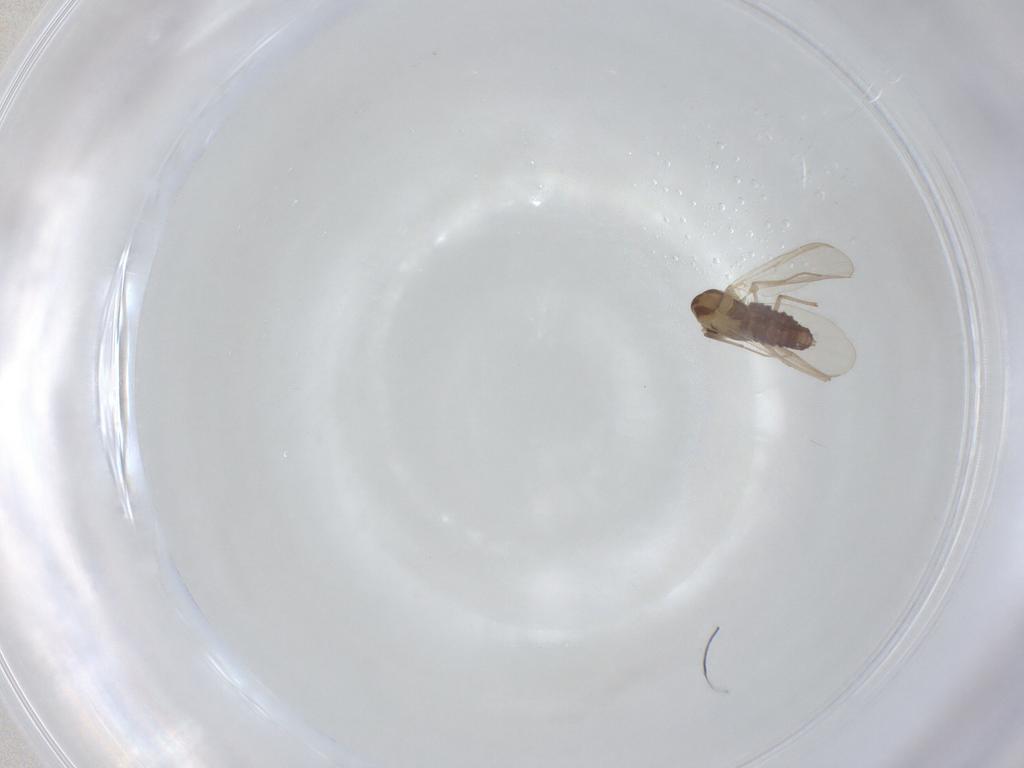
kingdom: Animalia
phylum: Arthropoda
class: Insecta
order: Diptera
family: Chironomidae
